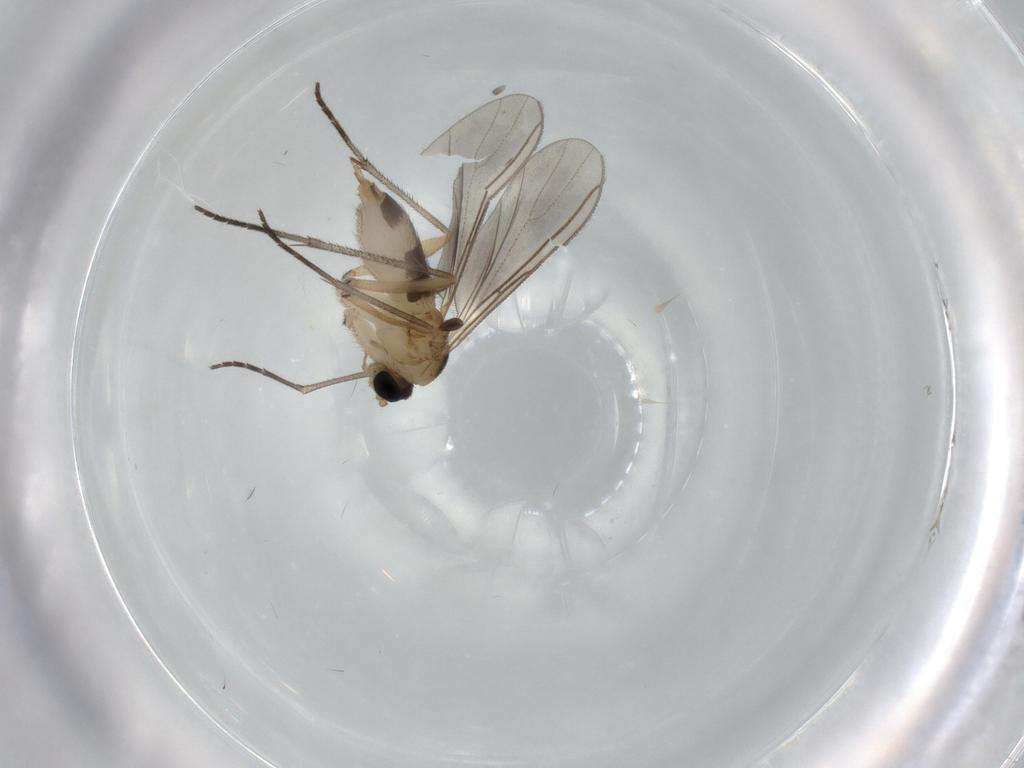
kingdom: Animalia
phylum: Arthropoda
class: Insecta
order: Diptera
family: Sciaridae
